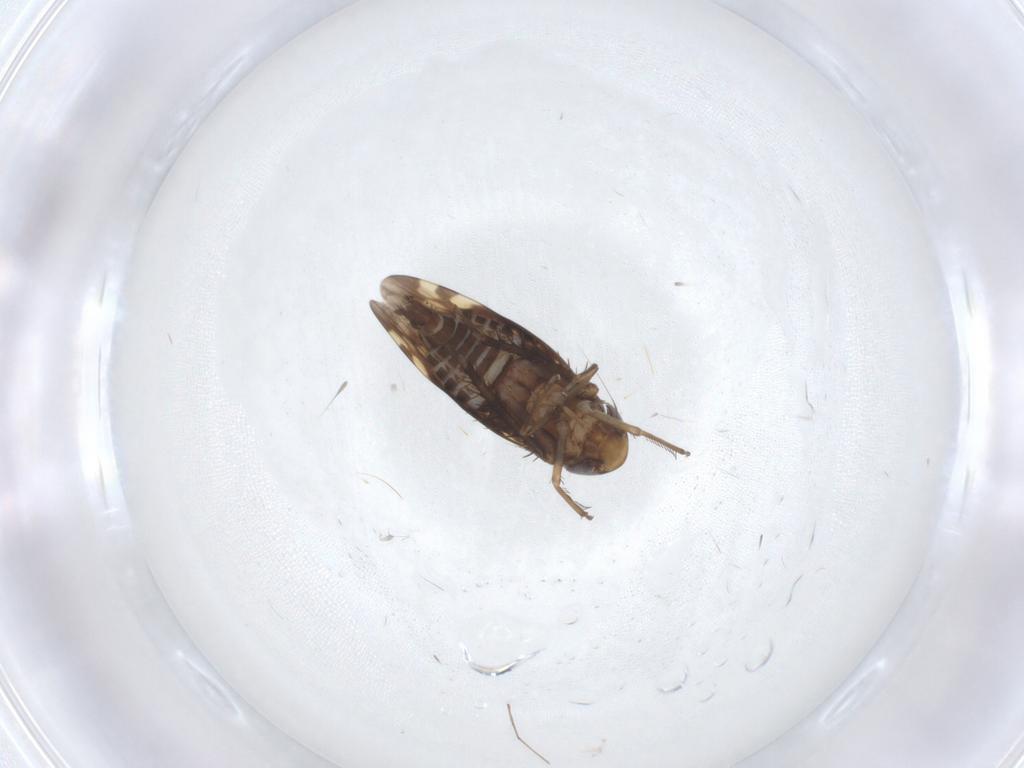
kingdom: Animalia
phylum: Arthropoda
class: Insecta
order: Hemiptera
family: Cicadellidae
